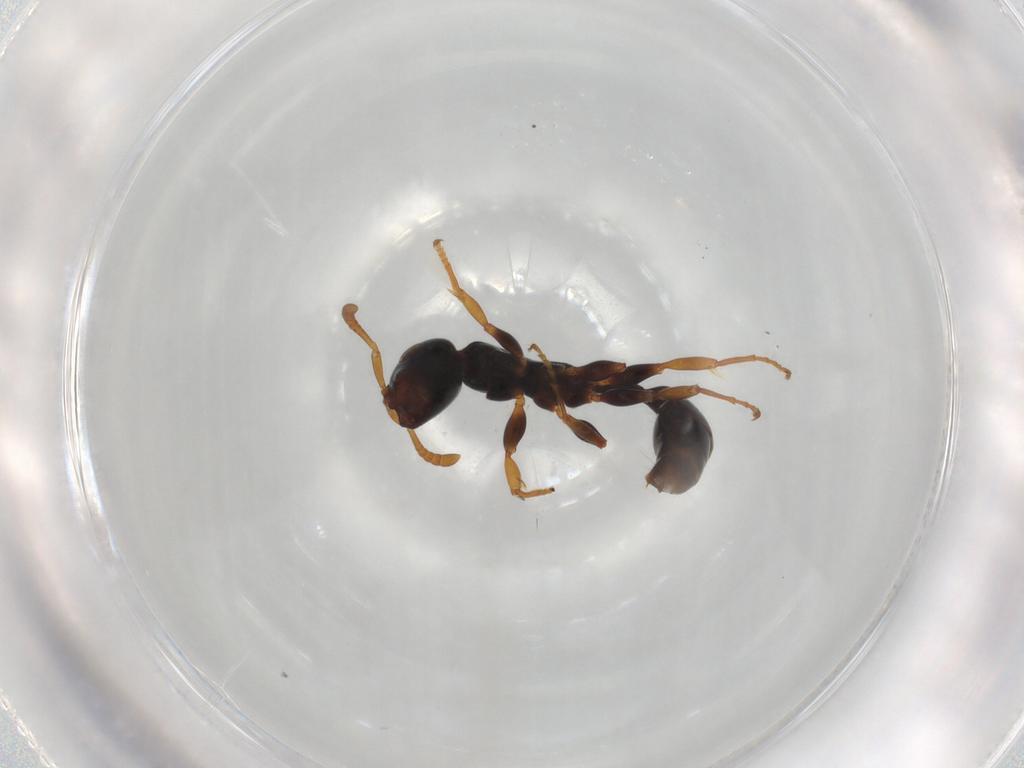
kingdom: Animalia
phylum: Arthropoda
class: Insecta
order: Hymenoptera
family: Formicidae
